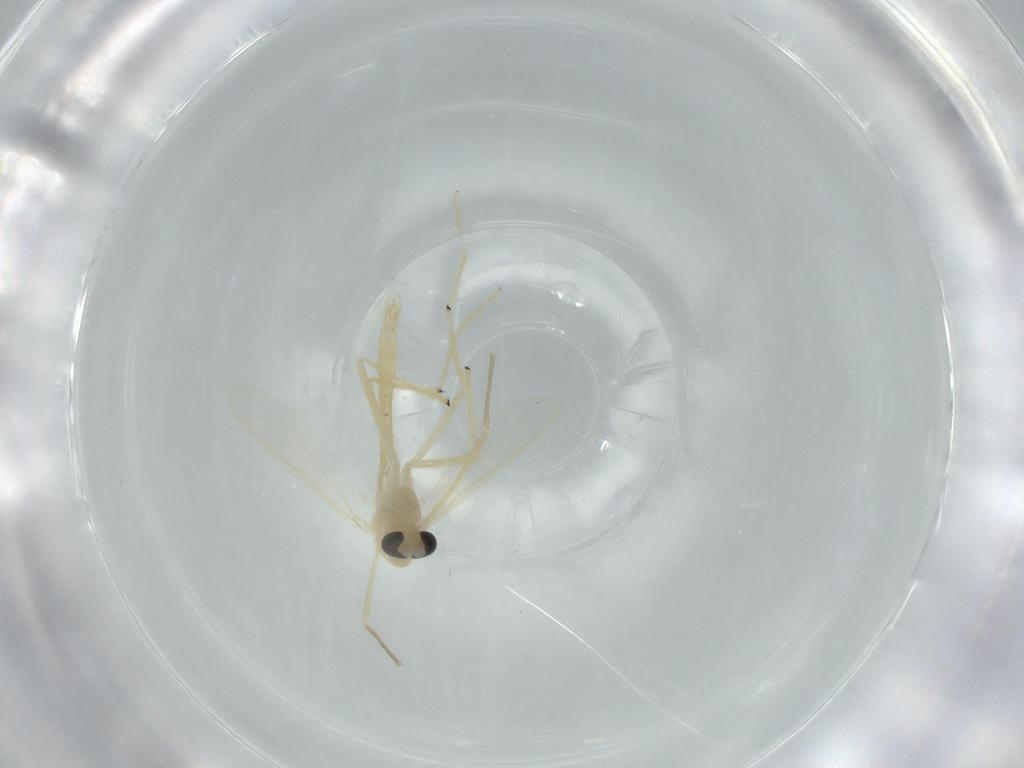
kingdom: Animalia
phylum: Arthropoda
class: Insecta
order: Diptera
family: Chironomidae
